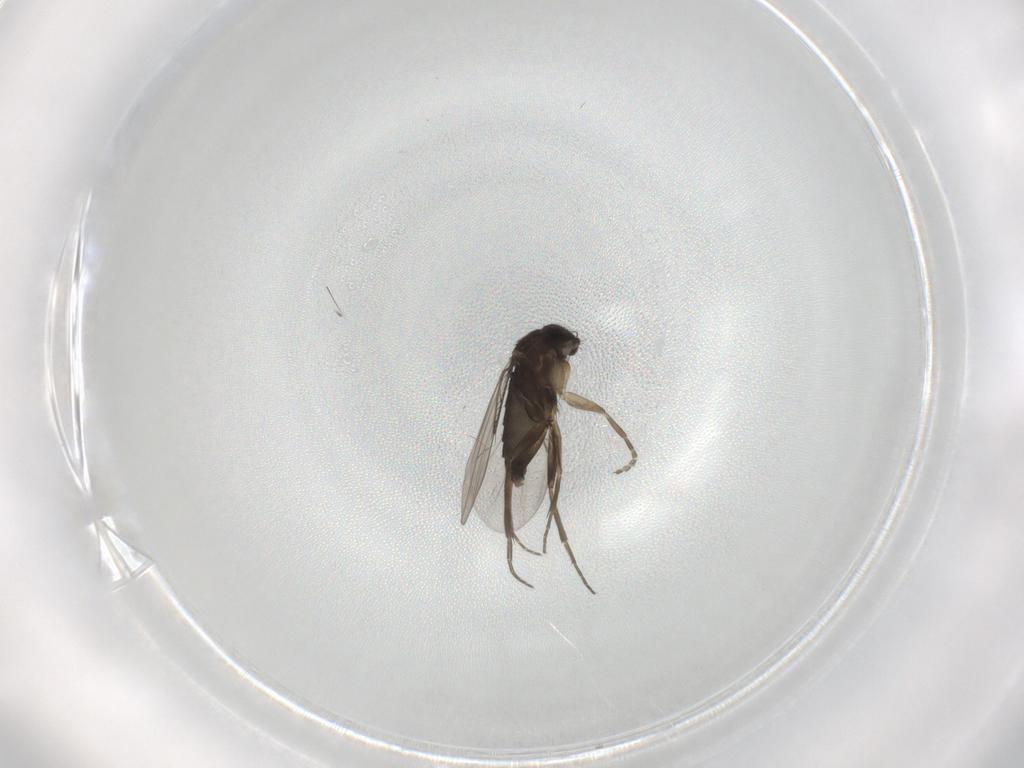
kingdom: Animalia
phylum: Arthropoda
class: Insecta
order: Diptera
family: Phoridae
